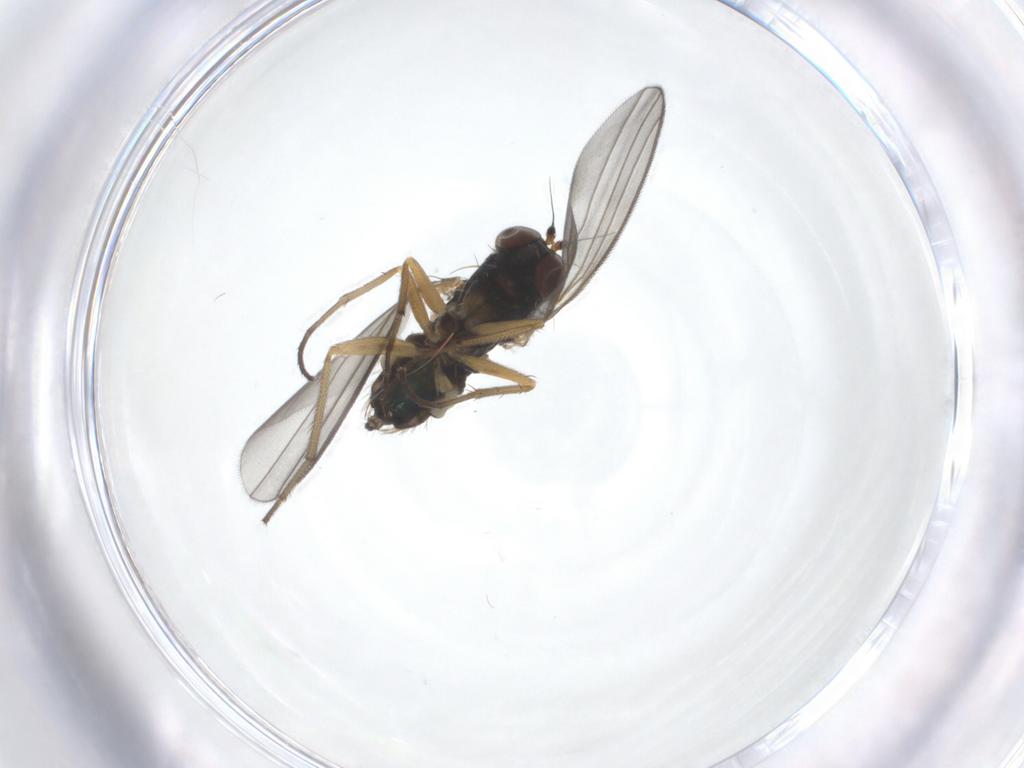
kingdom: Animalia
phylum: Arthropoda
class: Insecta
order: Diptera
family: Dolichopodidae
